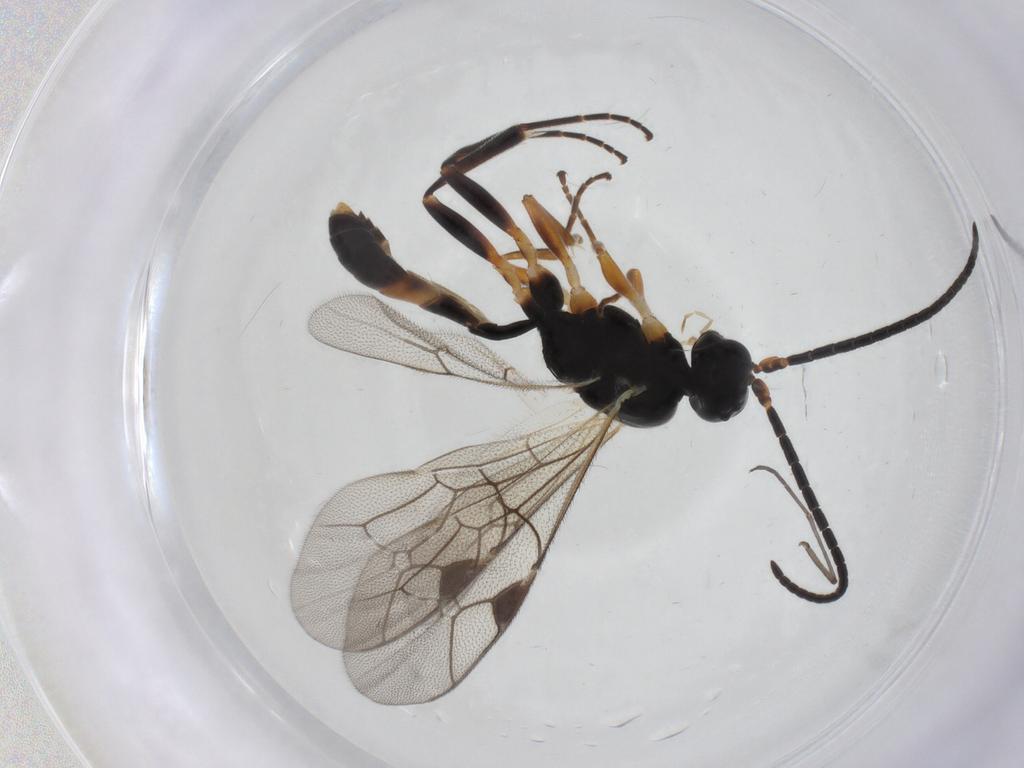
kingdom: Animalia
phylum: Arthropoda
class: Insecta
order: Hymenoptera
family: Ichneumonidae
